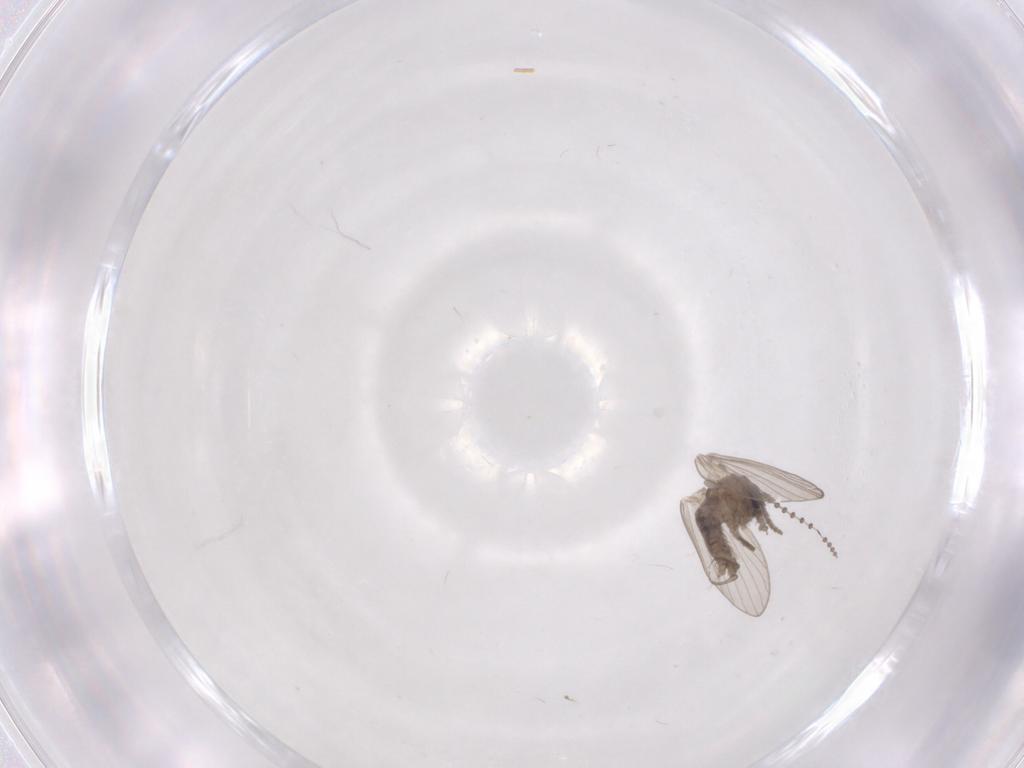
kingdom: Animalia
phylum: Arthropoda
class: Insecta
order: Diptera
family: Psychodidae
